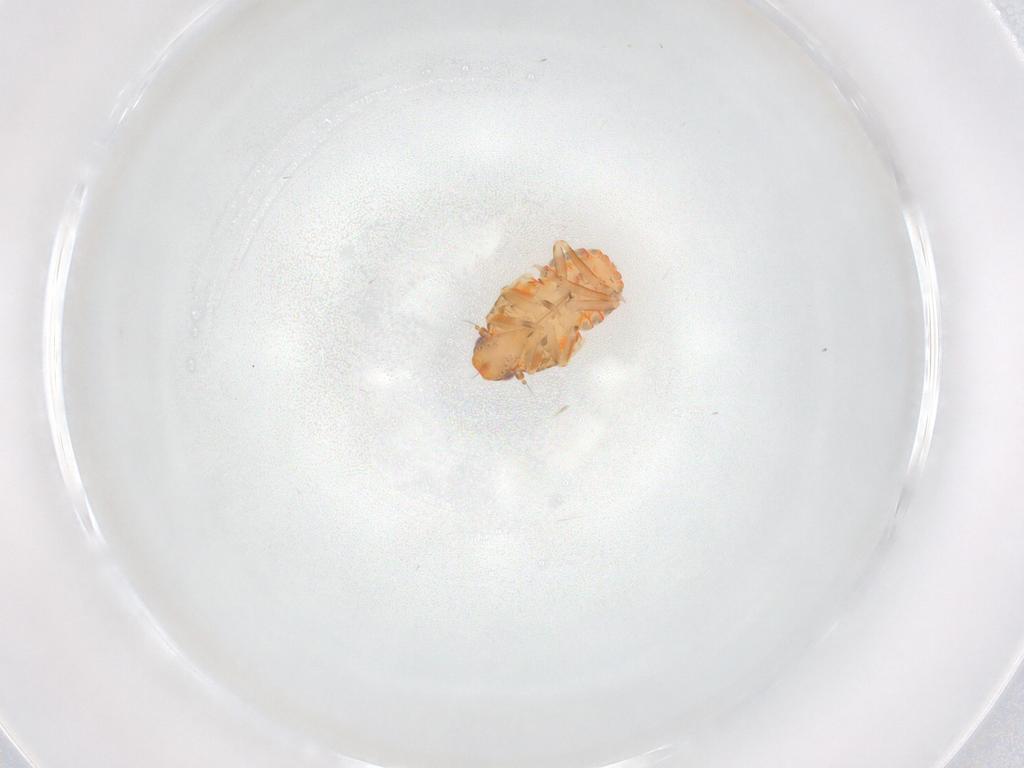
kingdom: Animalia
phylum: Arthropoda
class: Insecta
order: Hemiptera
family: Flatidae
